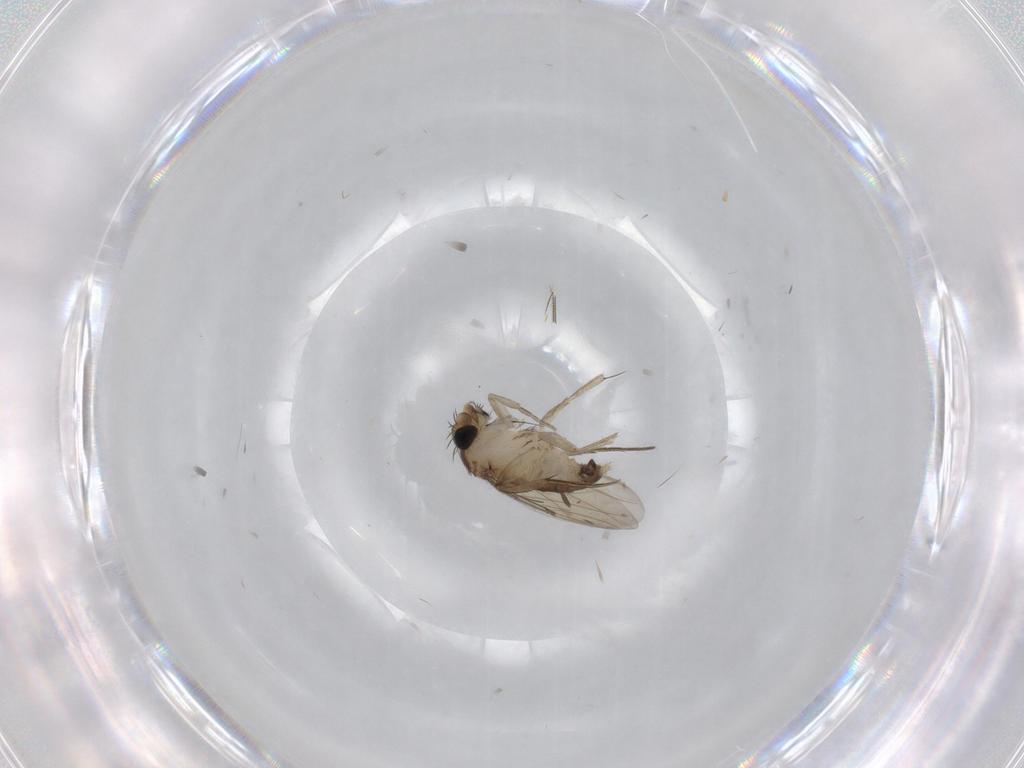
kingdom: Animalia
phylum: Arthropoda
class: Insecta
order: Diptera
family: Phoridae
